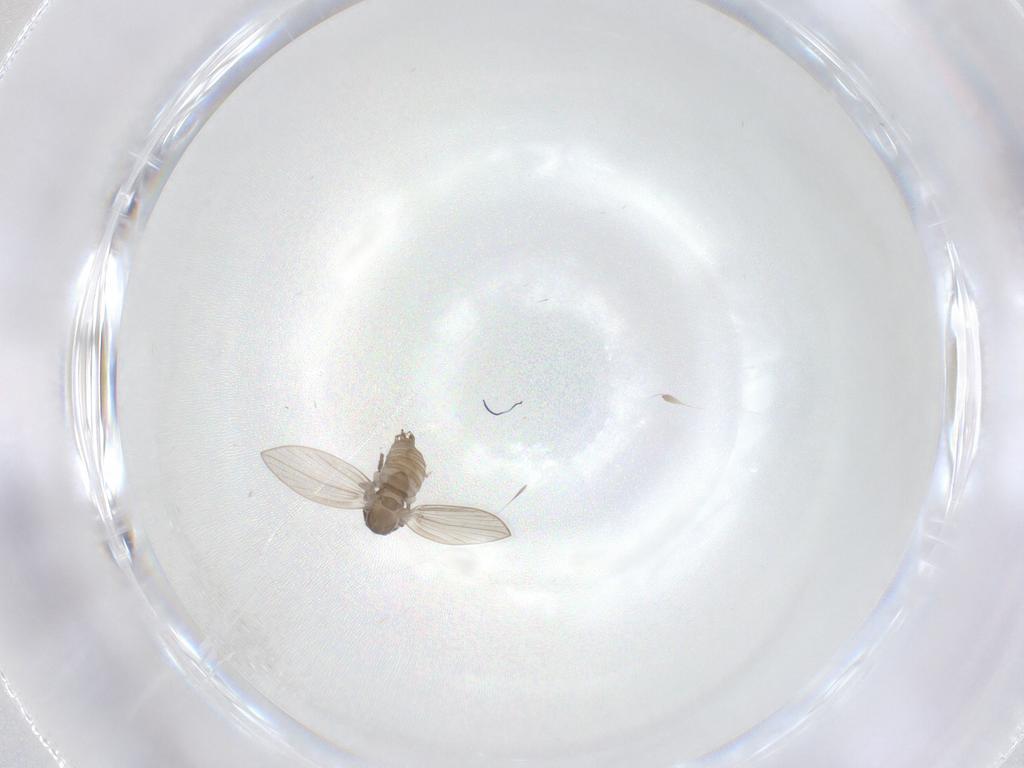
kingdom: Animalia
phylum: Arthropoda
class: Insecta
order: Diptera
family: Psychodidae
